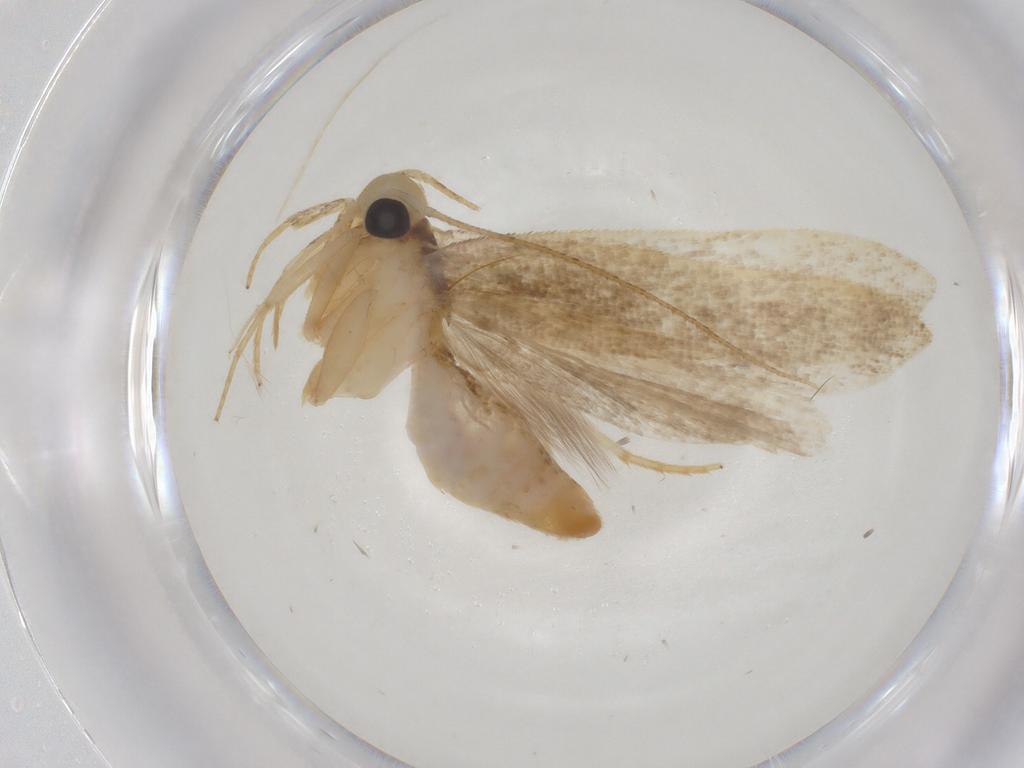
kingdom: Animalia
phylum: Arthropoda
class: Insecta
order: Lepidoptera
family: Gelechiidae
